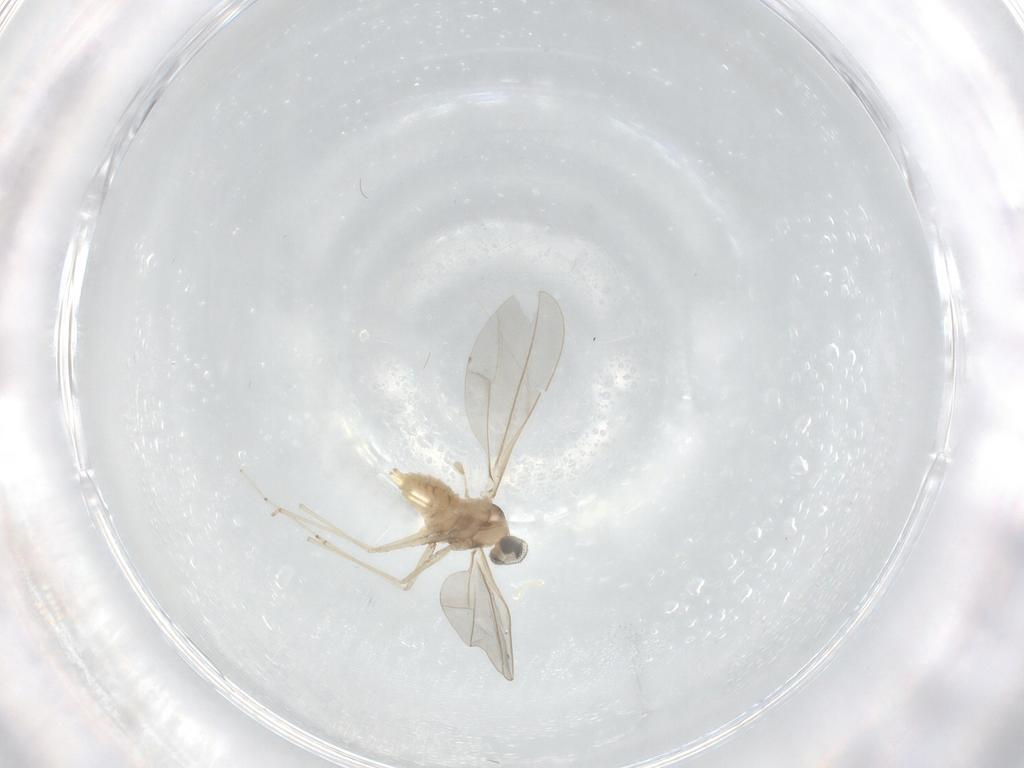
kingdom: Animalia
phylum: Arthropoda
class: Insecta
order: Diptera
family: Cecidomyiidae
